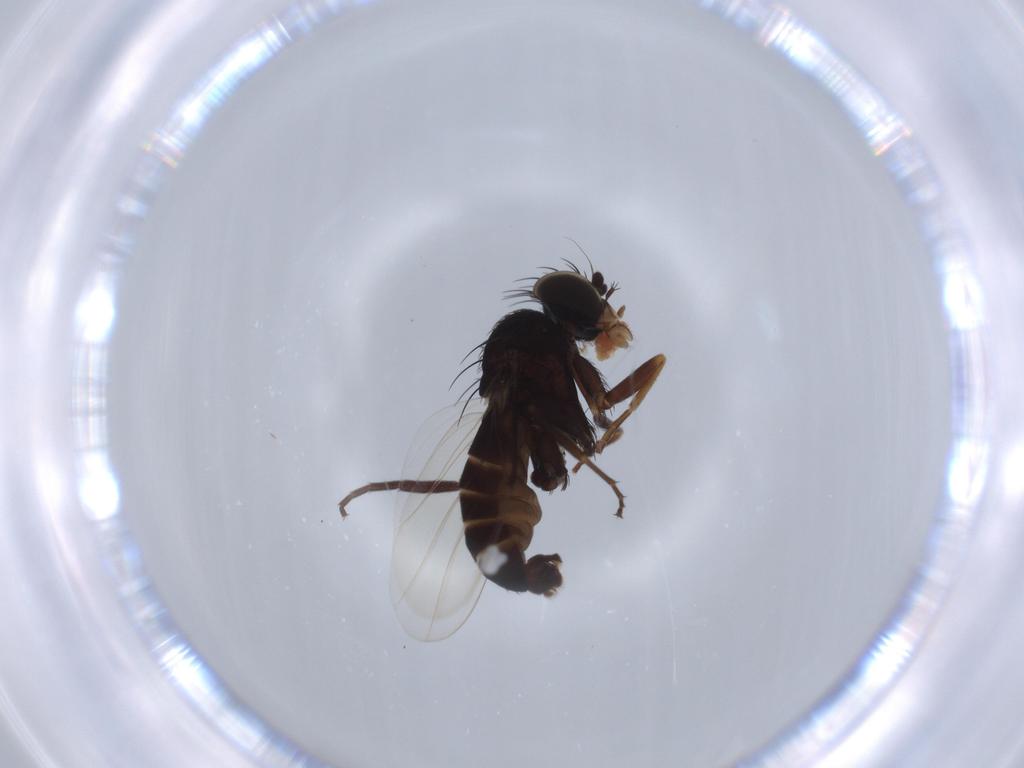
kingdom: Animalia
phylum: Arthropoda
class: Insecta
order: Diptera
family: Phoridae
